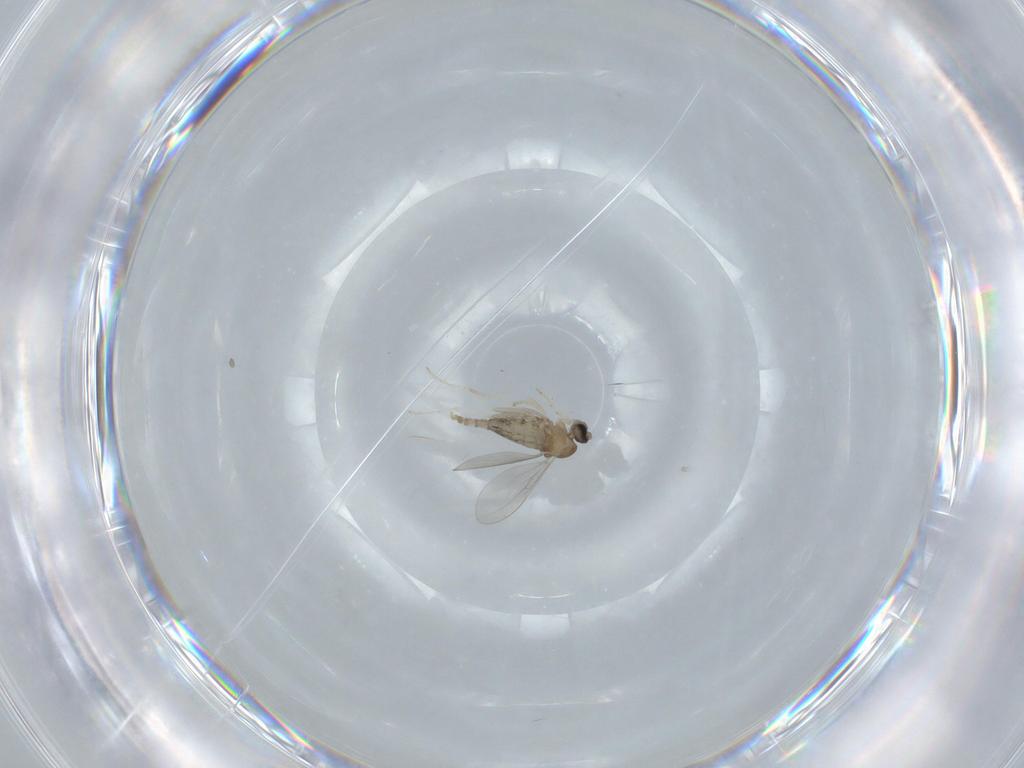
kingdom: Animalia
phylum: Arthropoda
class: Insecta
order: Diptera
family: Cecidomyiidae
